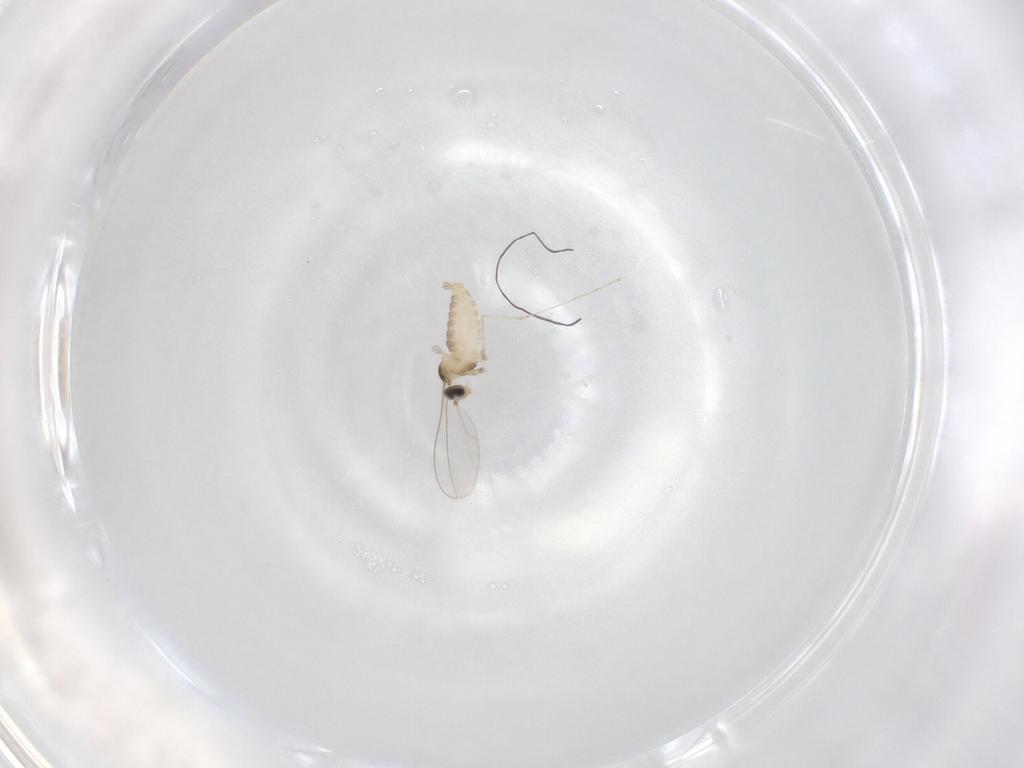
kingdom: Animalia
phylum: Arthropoda
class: Insecta
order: Diptera
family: Cecidomyiidae
